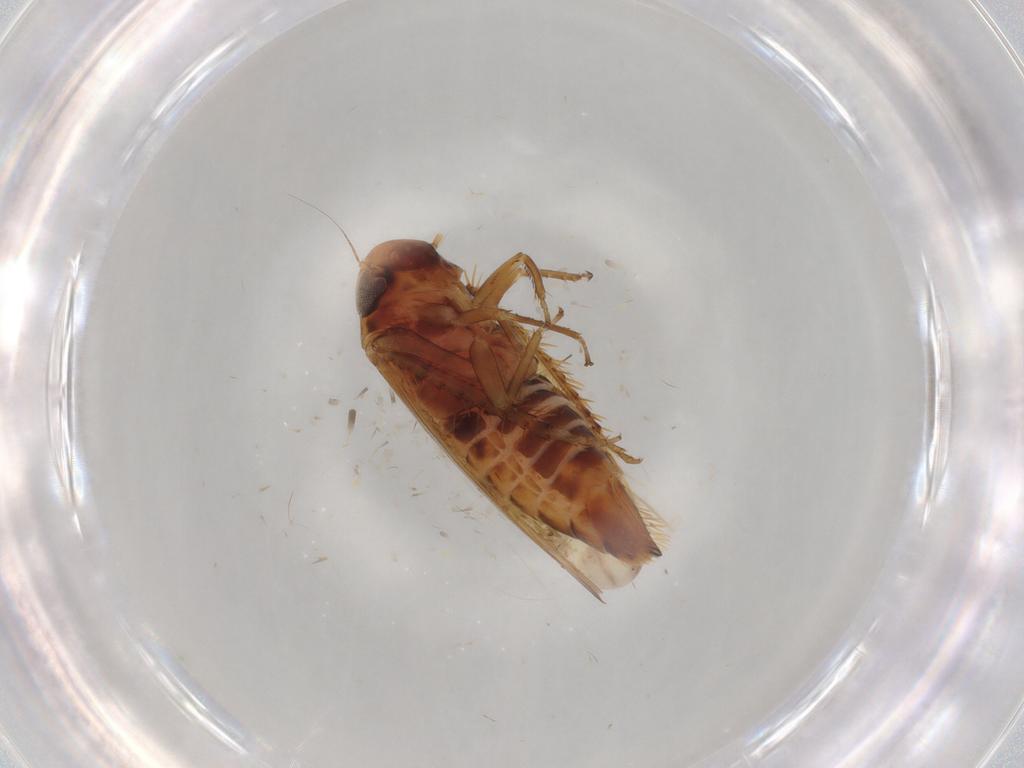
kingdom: Animalia
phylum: Arthropoda
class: Insecta
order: Hemiptera
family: Cicadellidae
